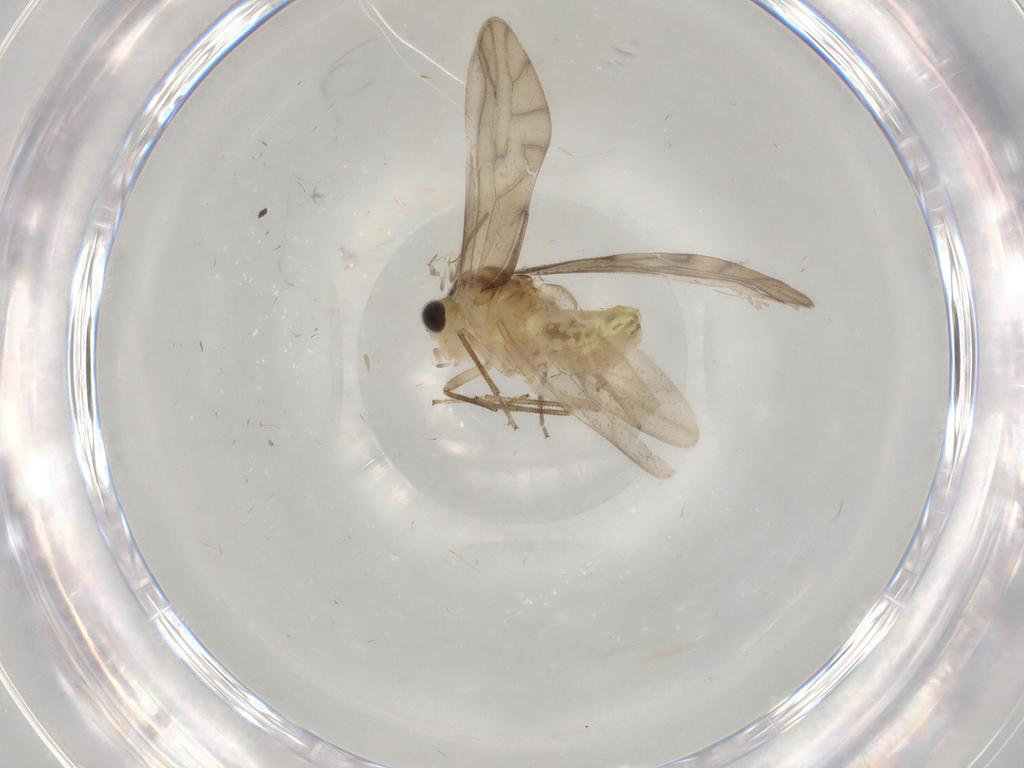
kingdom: Animalia
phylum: Arthropoda
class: Insecta
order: Psocodea
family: Caeciliusidae
